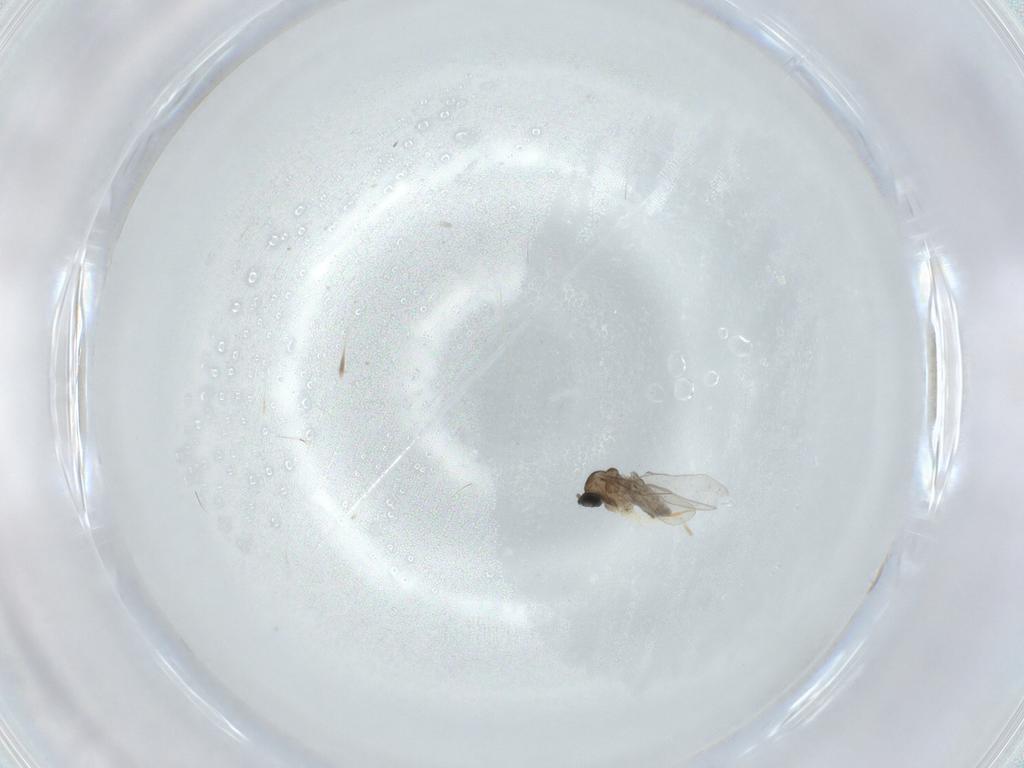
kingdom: Animalia
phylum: Arthropoda
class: Insecta
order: Diptera
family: Cecidomyiidae
